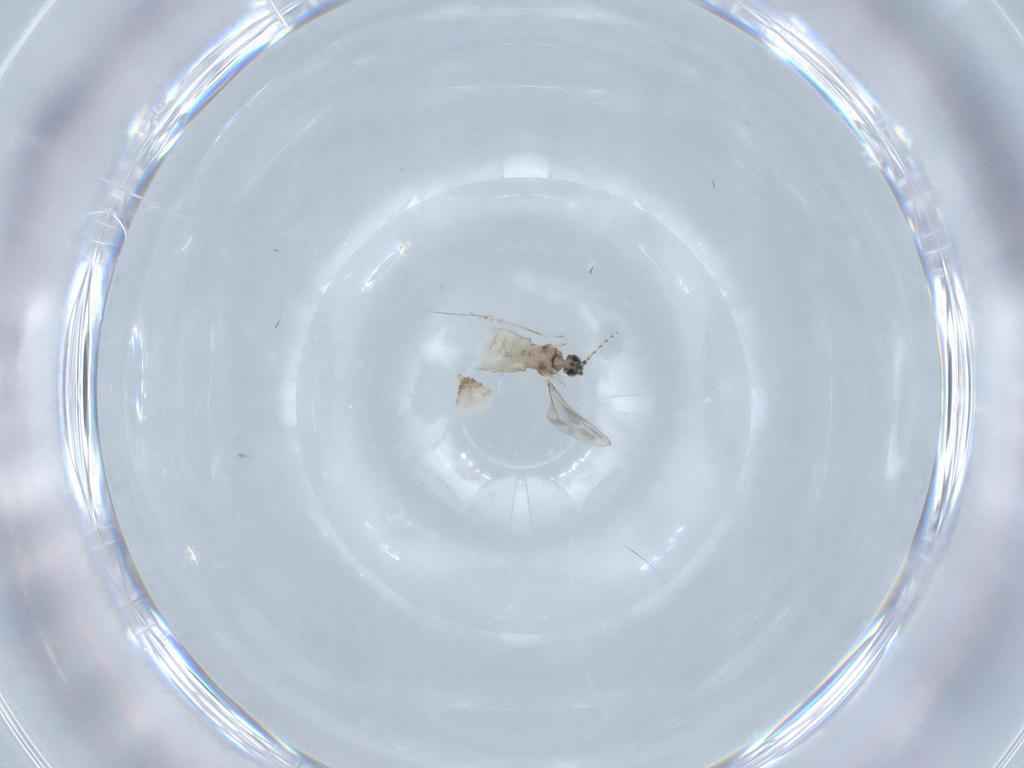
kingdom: Animalia
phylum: Arthropoda
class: Insecta
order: Diptera
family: Cecidomyiidae
